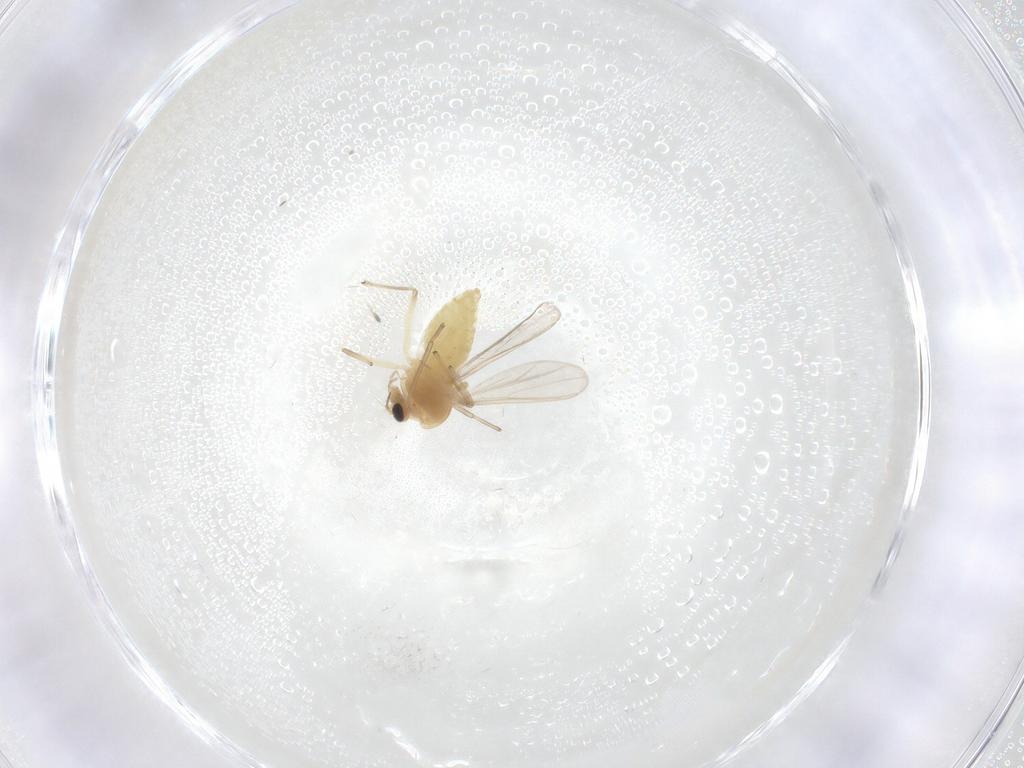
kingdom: Animalia
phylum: Arthropoda
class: Insecta
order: Diptera
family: Chironomidae
